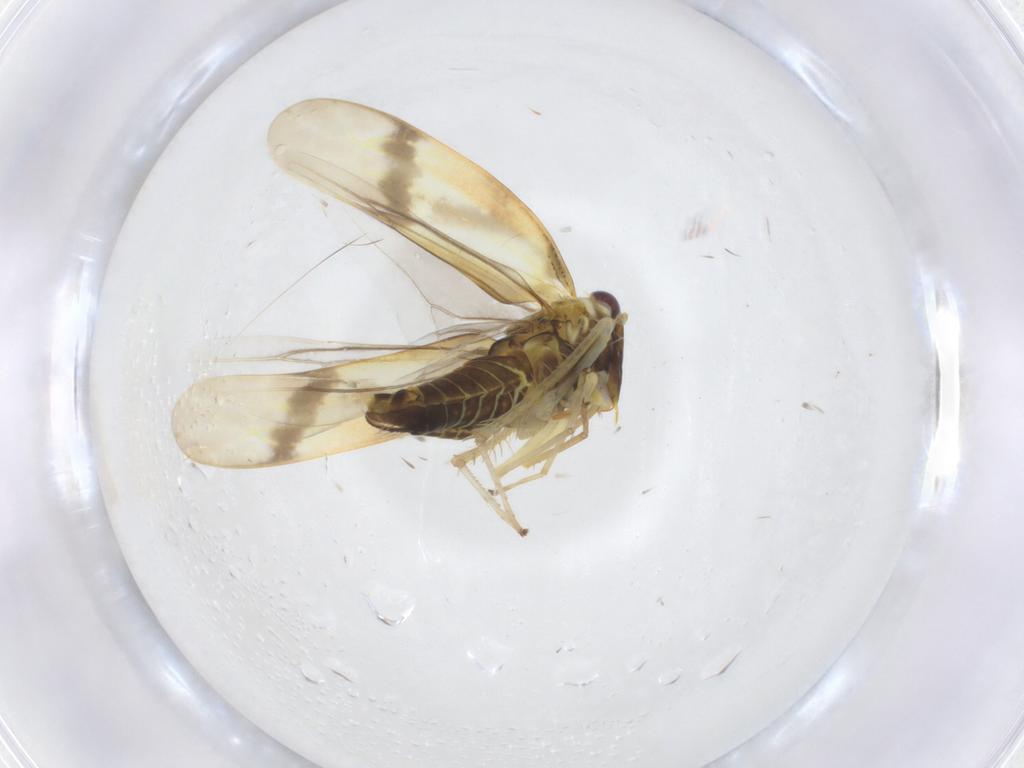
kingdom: Animalia
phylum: Arthropoda
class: Insecta
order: Hemiptera
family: Cicadellidae
